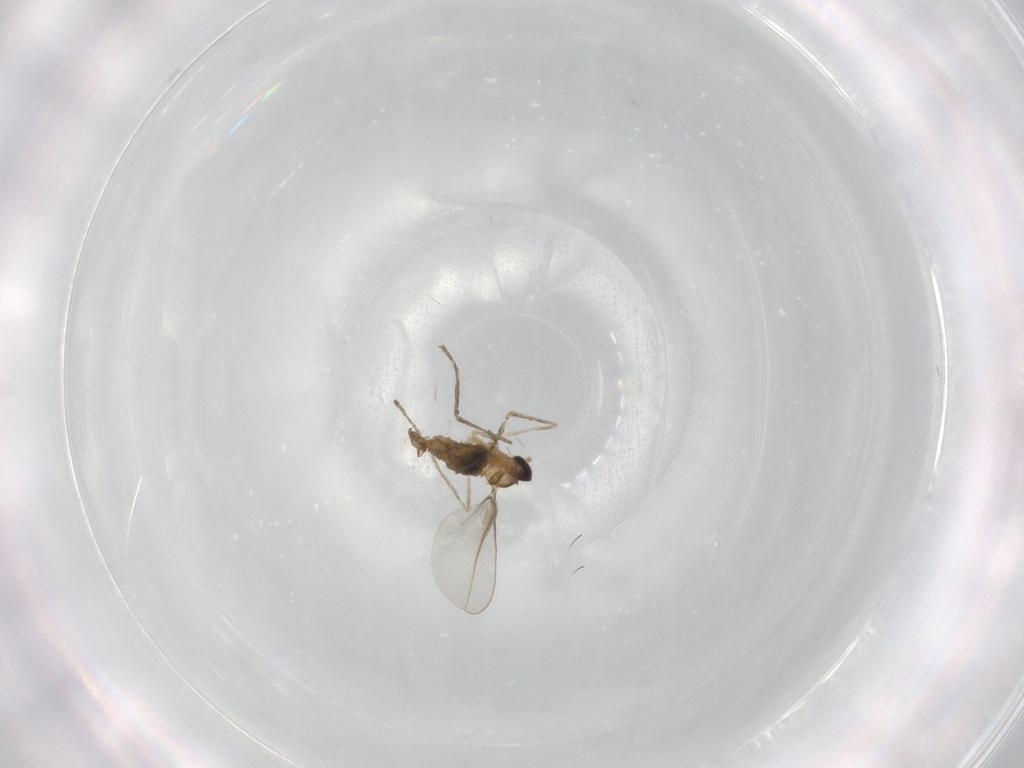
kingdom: Animalia
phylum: Arthropoda
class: Insecta
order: Diptera
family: Cecidomyiidae
